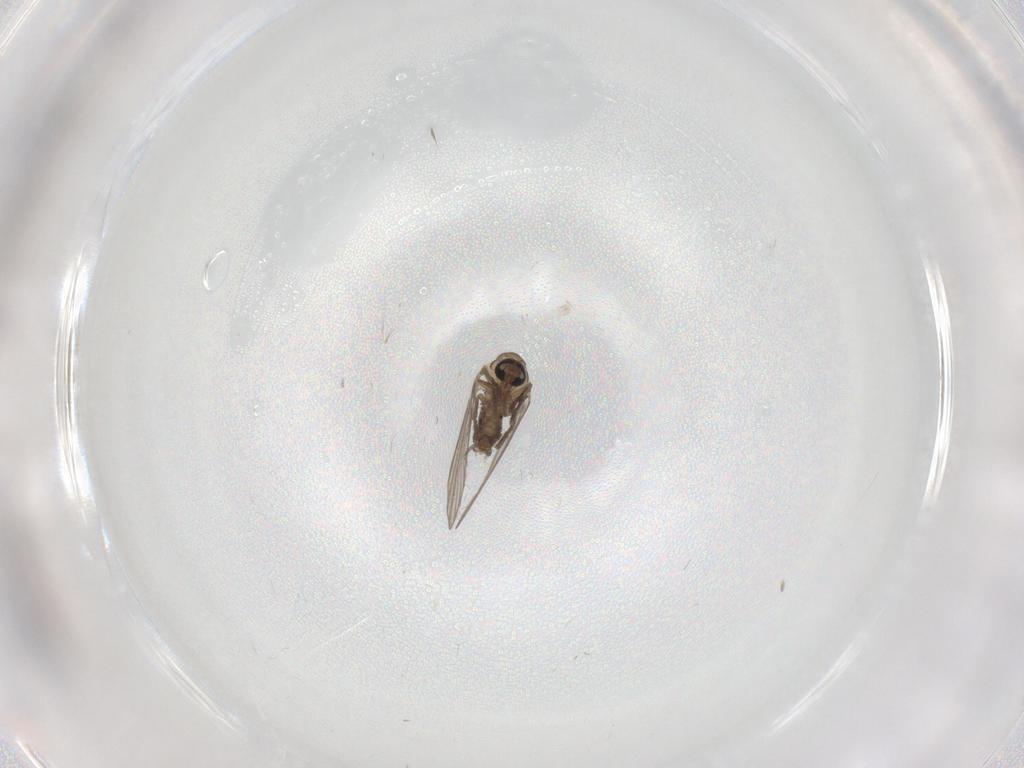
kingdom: Animalia
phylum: Arthropoda
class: Insecta
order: Diptera
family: Psychodidae
